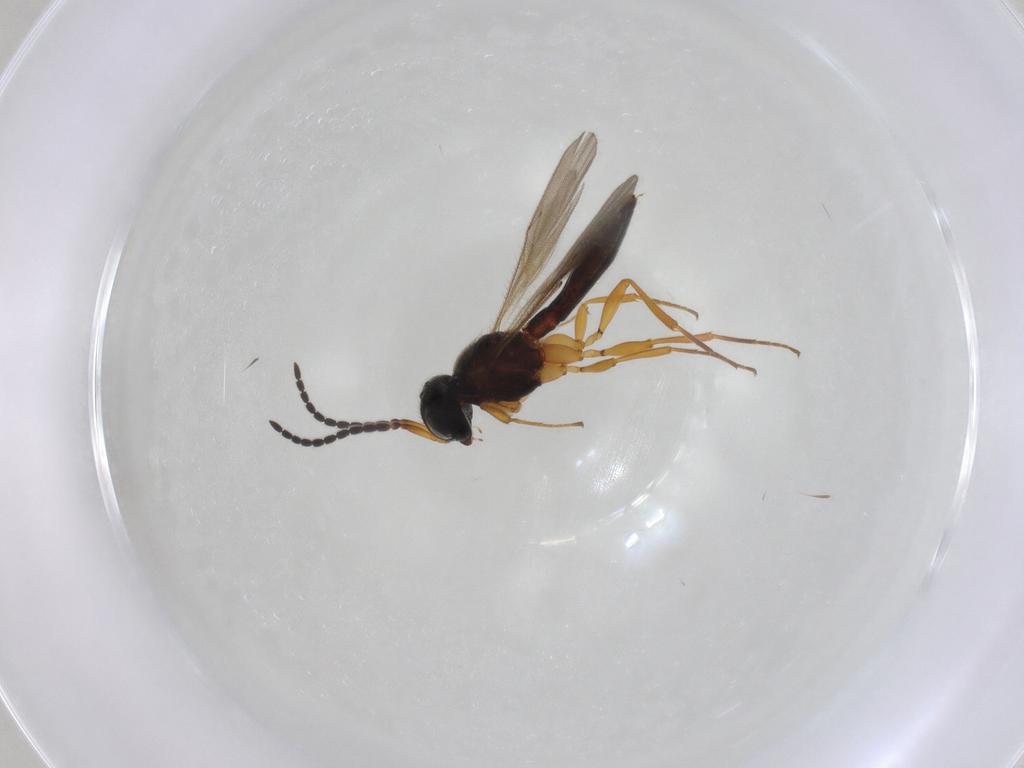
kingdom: Animalia
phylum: Arthropoda
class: Insecta
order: Hymenoptera
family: Scelionidae
